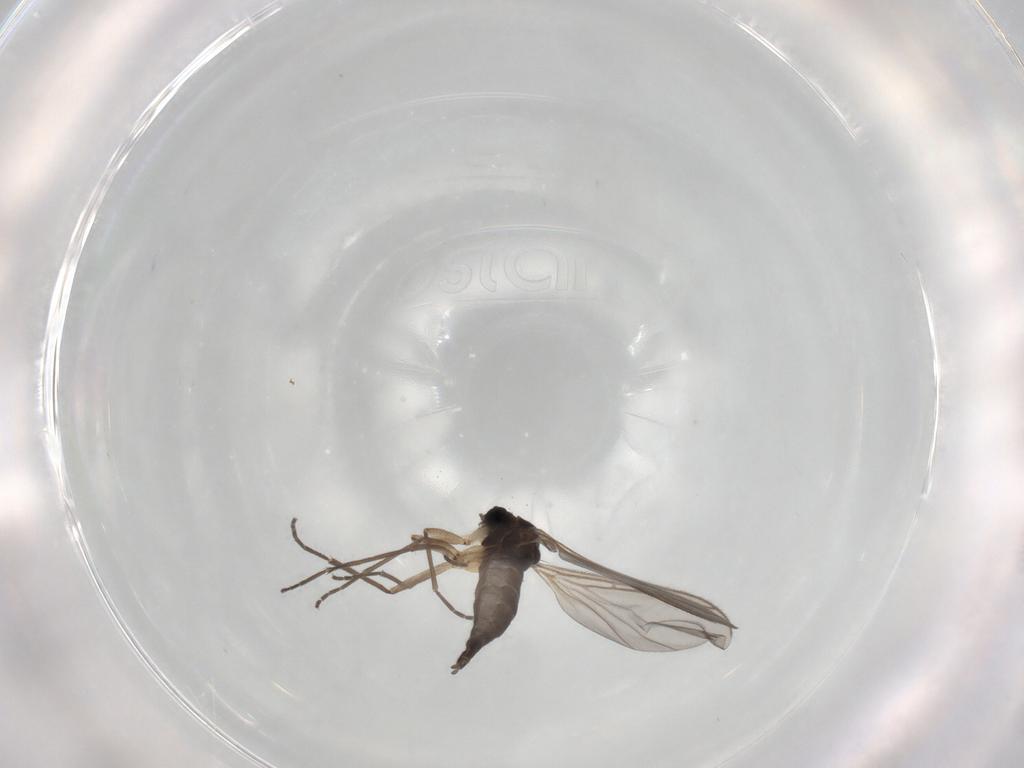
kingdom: Animalia
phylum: Arthropoda
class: Insecta
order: Diptera
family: Sciaridae
